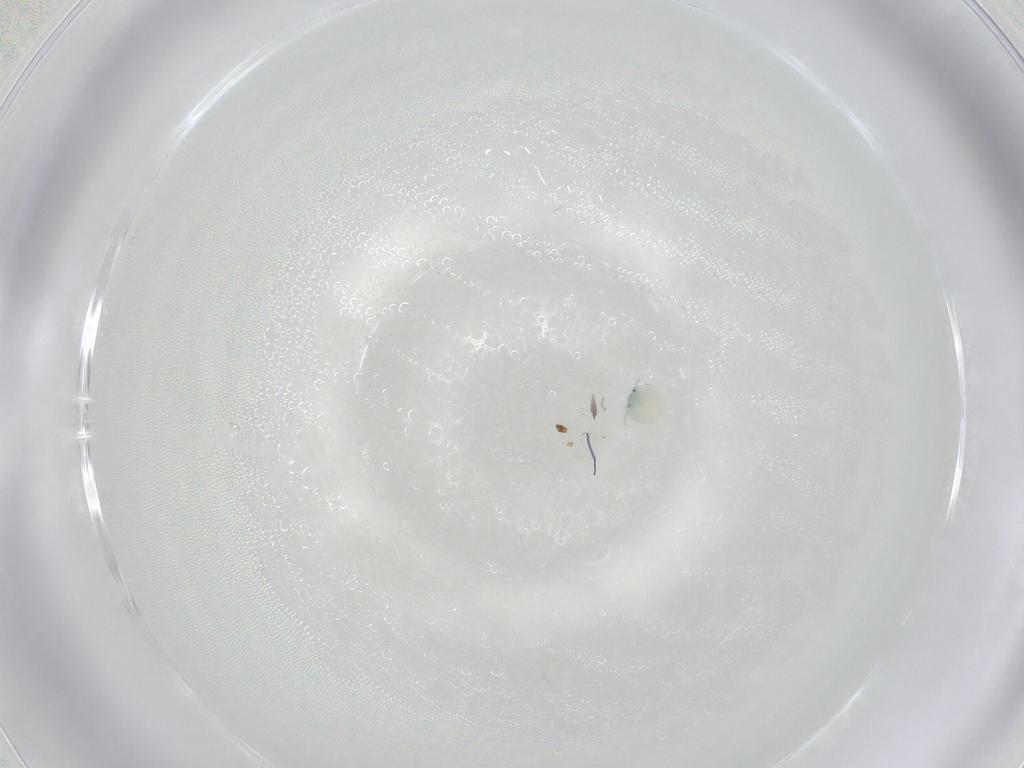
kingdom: Animalia
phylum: Arthropoda
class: Arachnida
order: Trombidiformes
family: Arrenuridae
